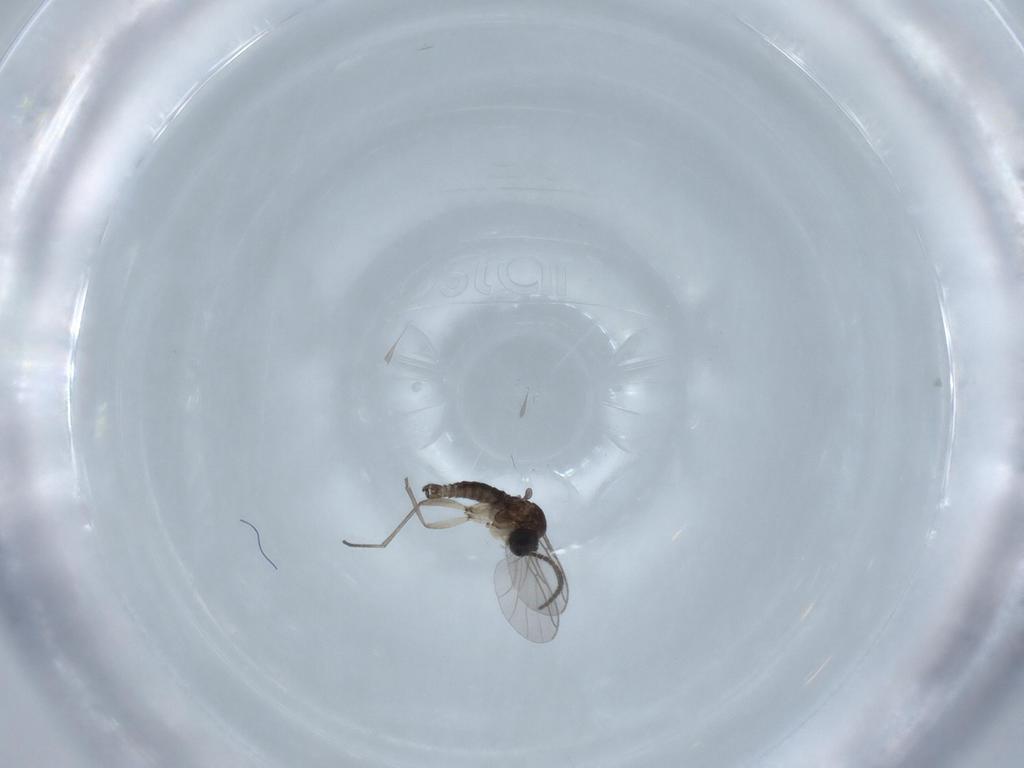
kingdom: Animalia
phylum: Arthropoda
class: Insecta
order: Diptera
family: Sciaridae
